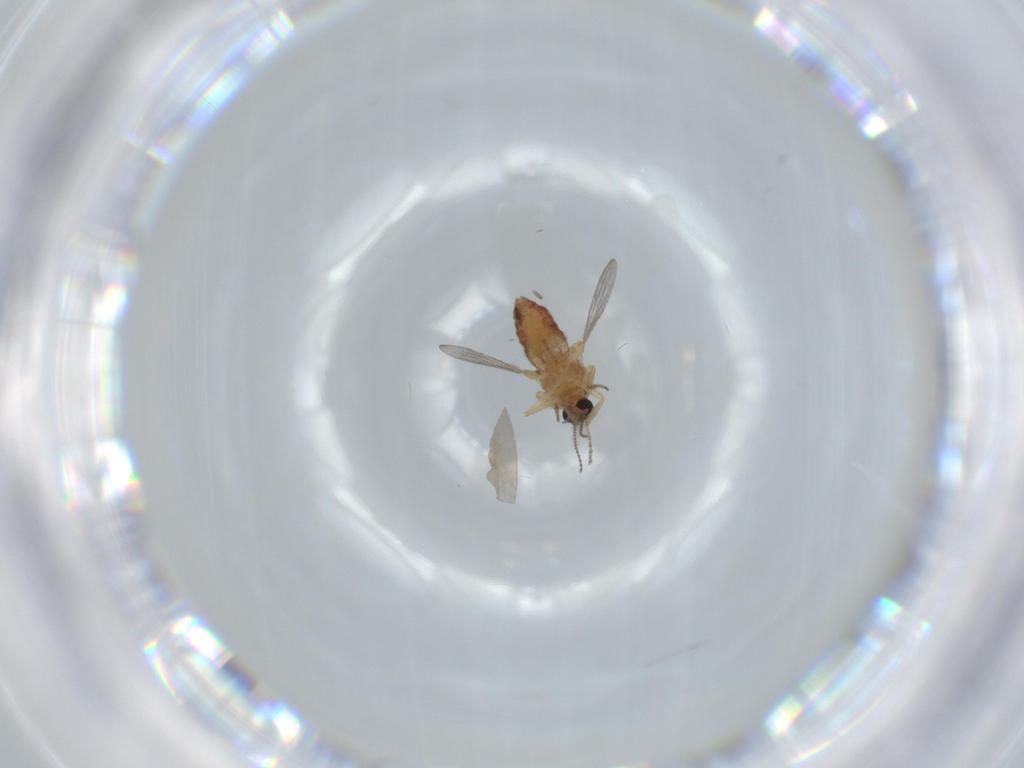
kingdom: Animalia
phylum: Arthropoda
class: Insecta
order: Diptera
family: Ceratopogonidae
